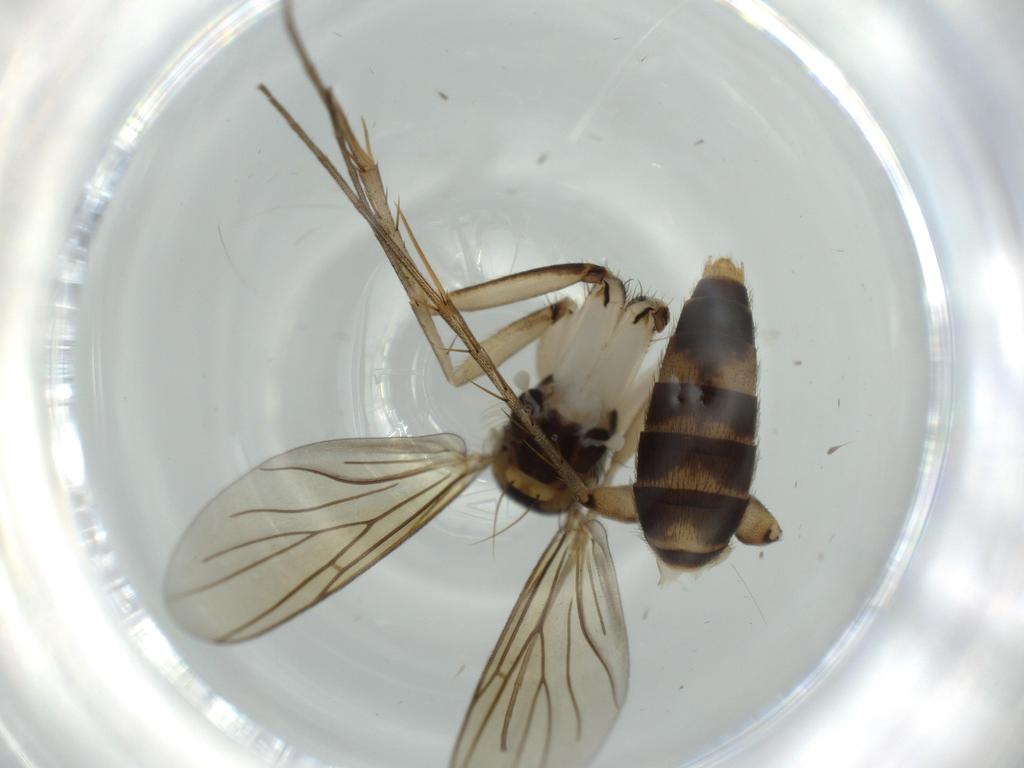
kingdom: Animalia
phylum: Arthropoda
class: Insecta
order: Diptera
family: Mycetophilidae
